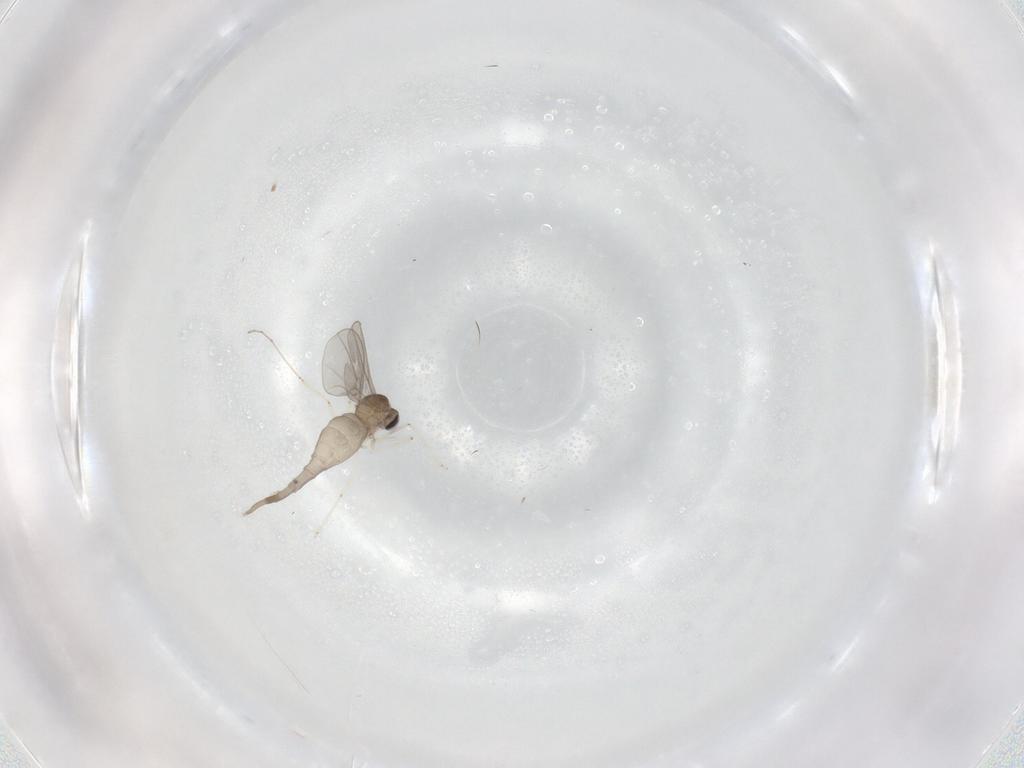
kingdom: Animalia
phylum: Arthropoda
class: Insecta
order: Diptera
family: Cecidomyiidae
